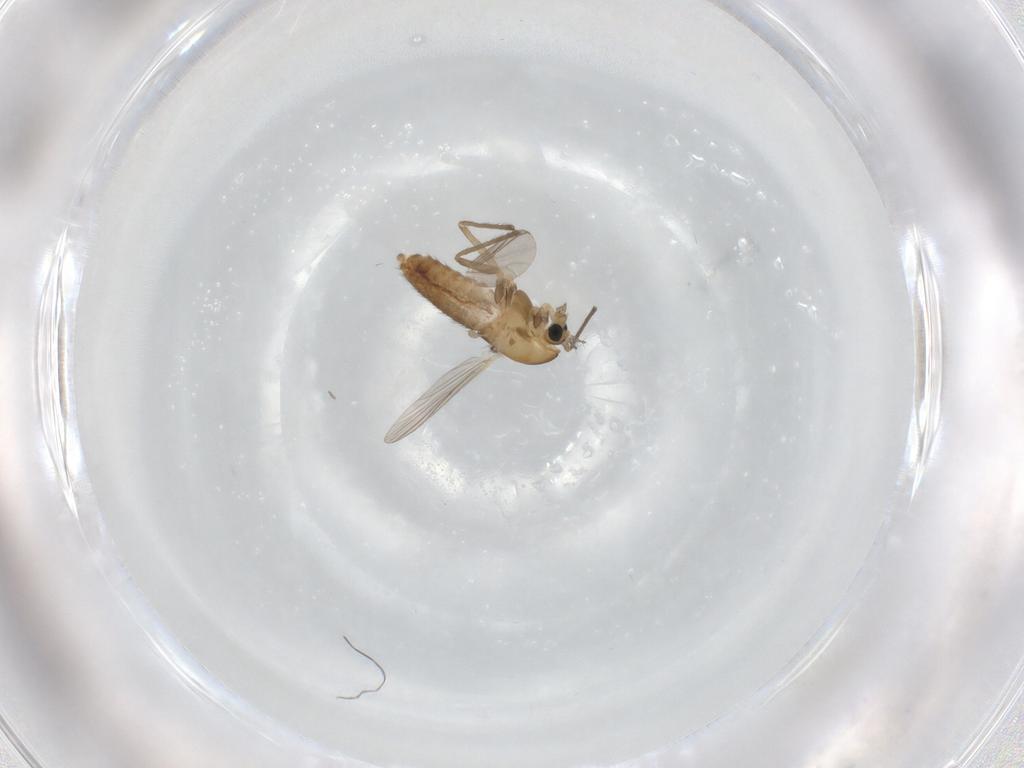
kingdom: Animalia
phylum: Arthropoda
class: Insecta
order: Diptera
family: Chironomidae
